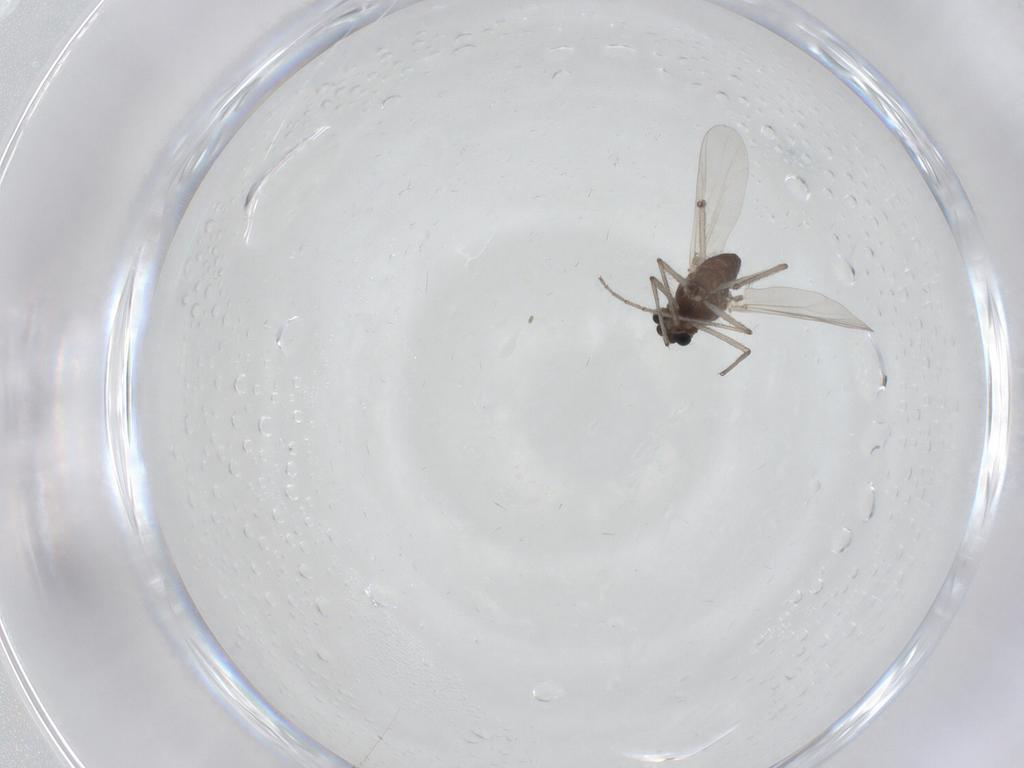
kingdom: Animalia
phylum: Arthropoda
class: Insecta
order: Diptera
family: Chironomidae
